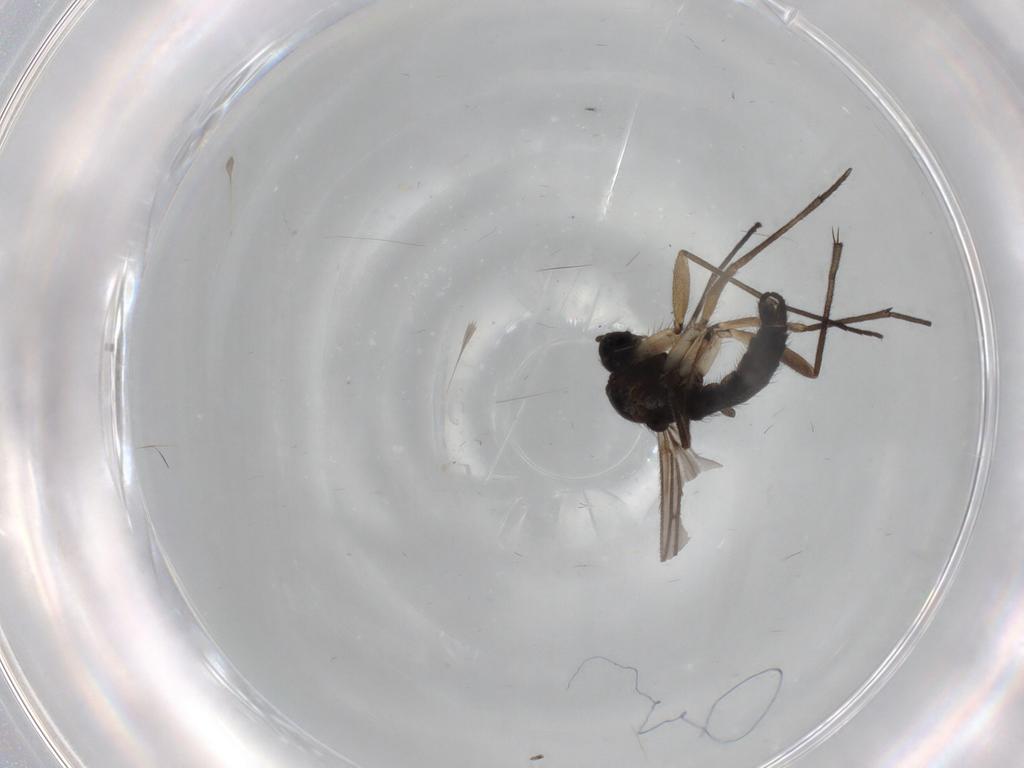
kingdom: Animalia
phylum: Arthropoda
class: Insecta
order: Diptera
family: Sciaridae
